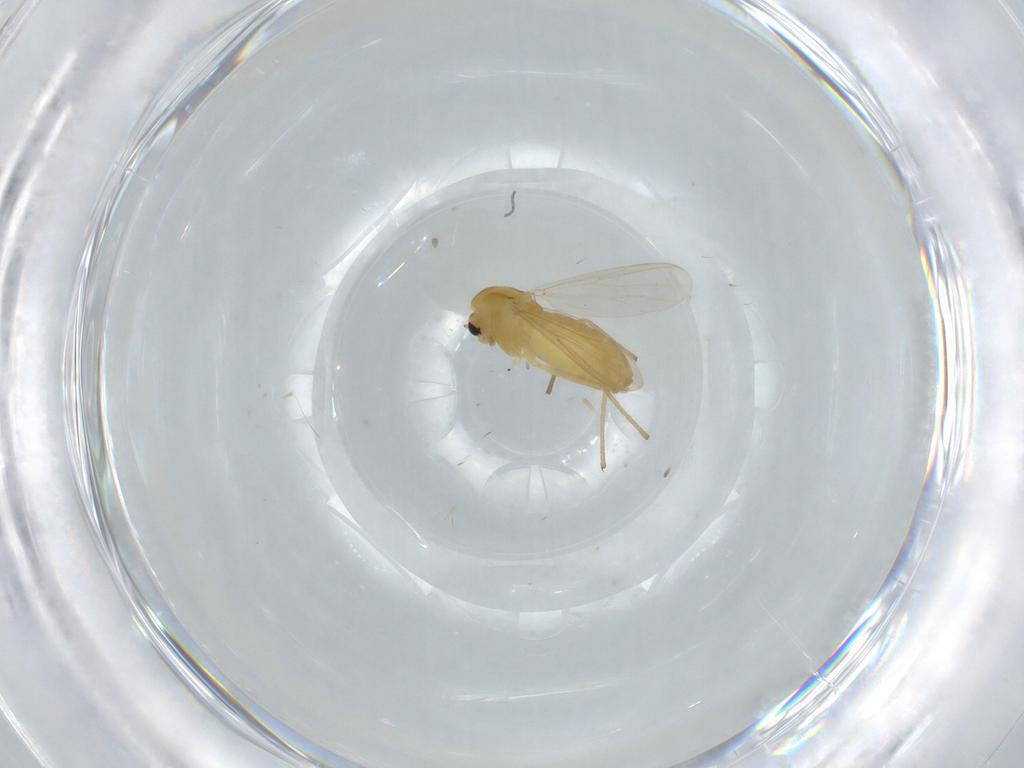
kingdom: Animalia
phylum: Arthropoda
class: Insecta
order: Diptera
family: Chironomidae
